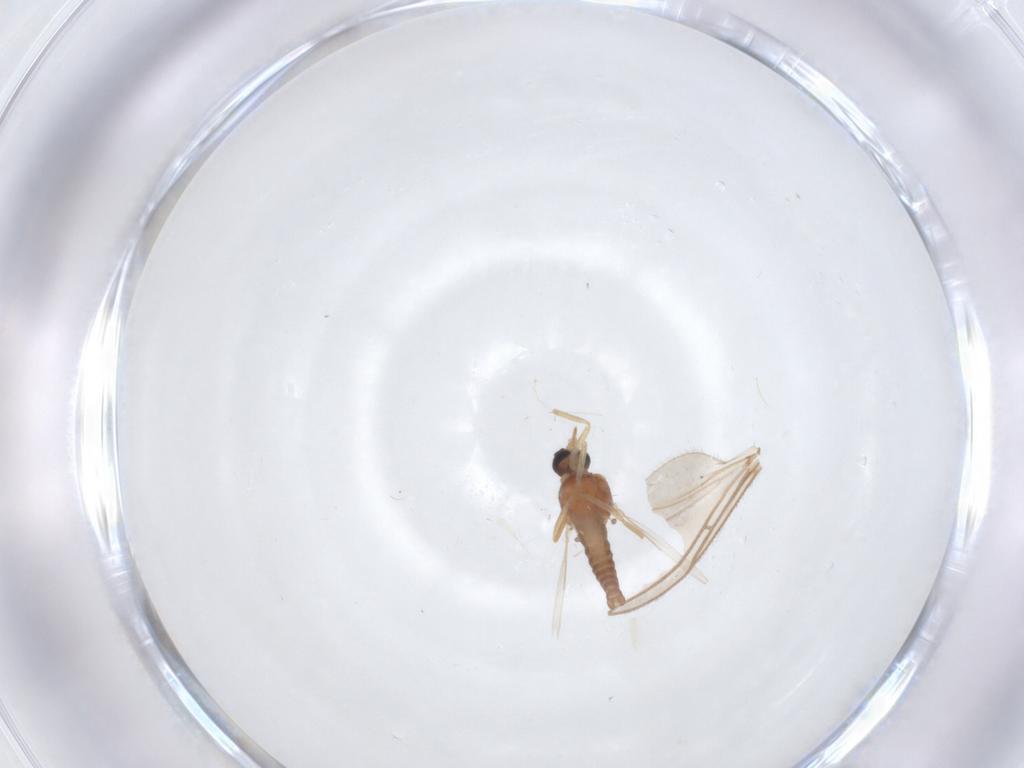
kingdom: Animalia
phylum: Arthropoda
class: Insecta
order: Diptera
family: Ceratopogonidae
